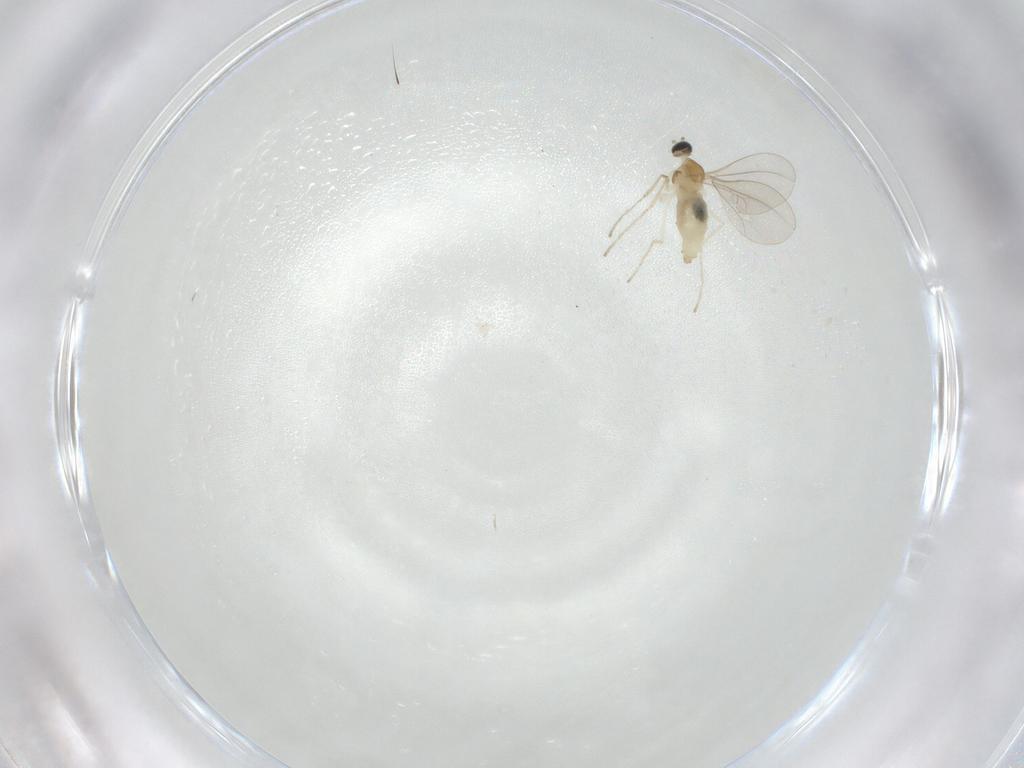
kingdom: Animalia
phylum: Arthropoda
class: Insecta
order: Diptera
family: Cecidomyiidae
